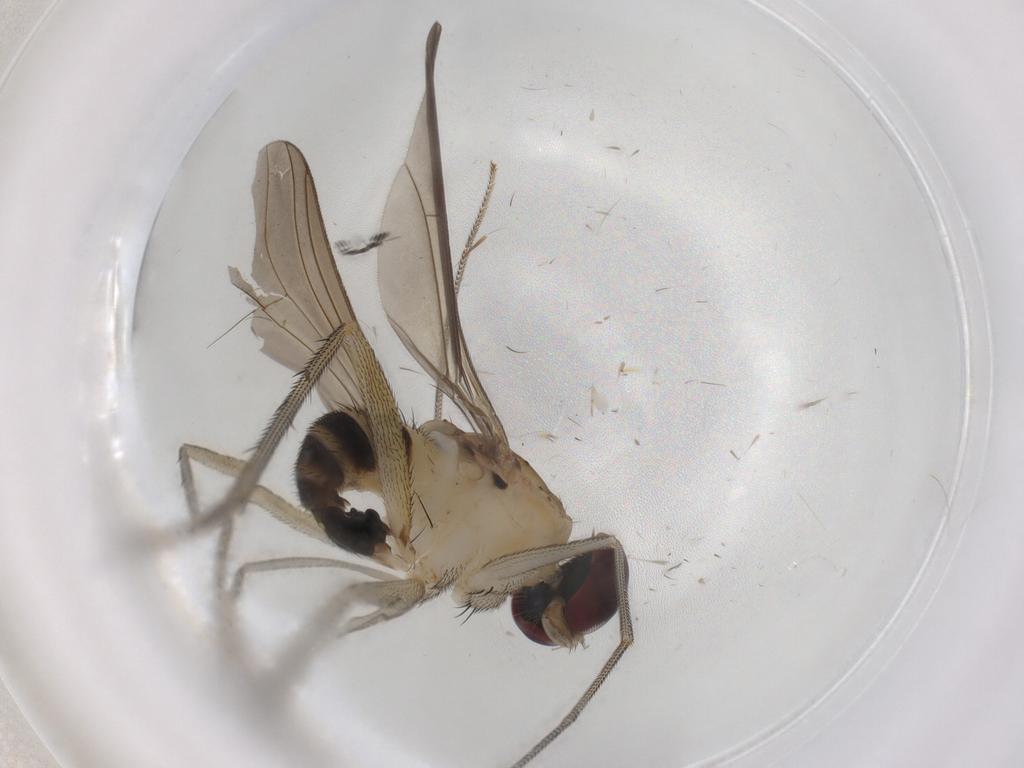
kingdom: Animalia
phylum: Arthropoda
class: Insecta
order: Diptera
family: Dolichopodidae
